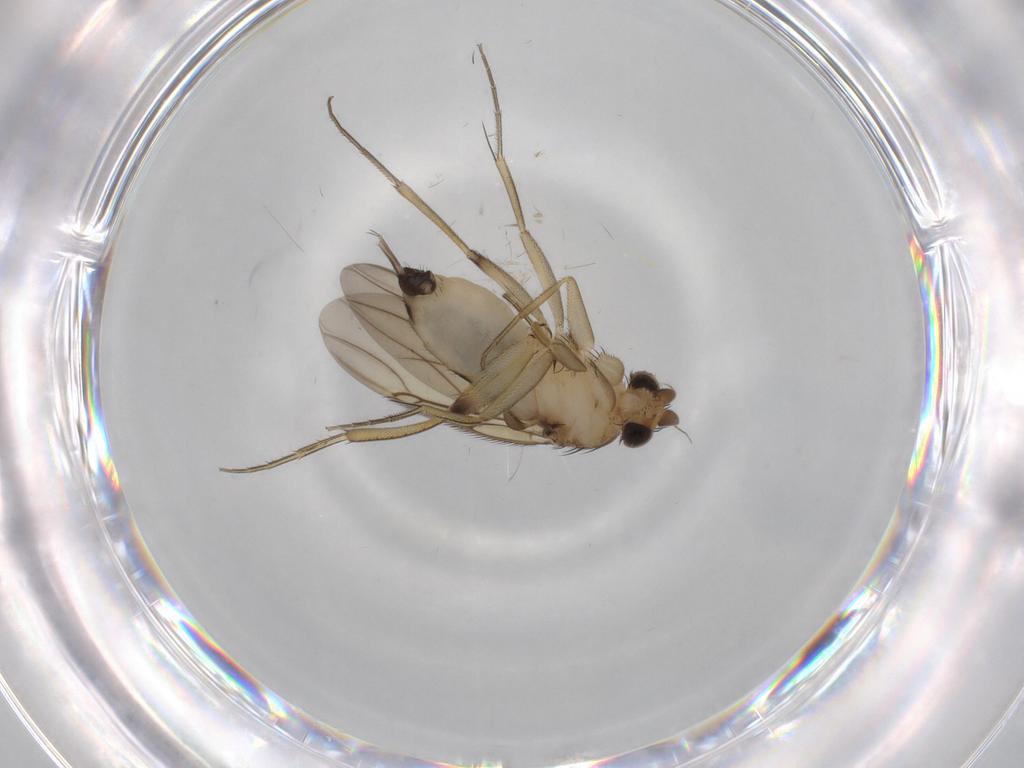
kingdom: Animalia
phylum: Arthropoda
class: Insecta
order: Diptera
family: Phoridae
